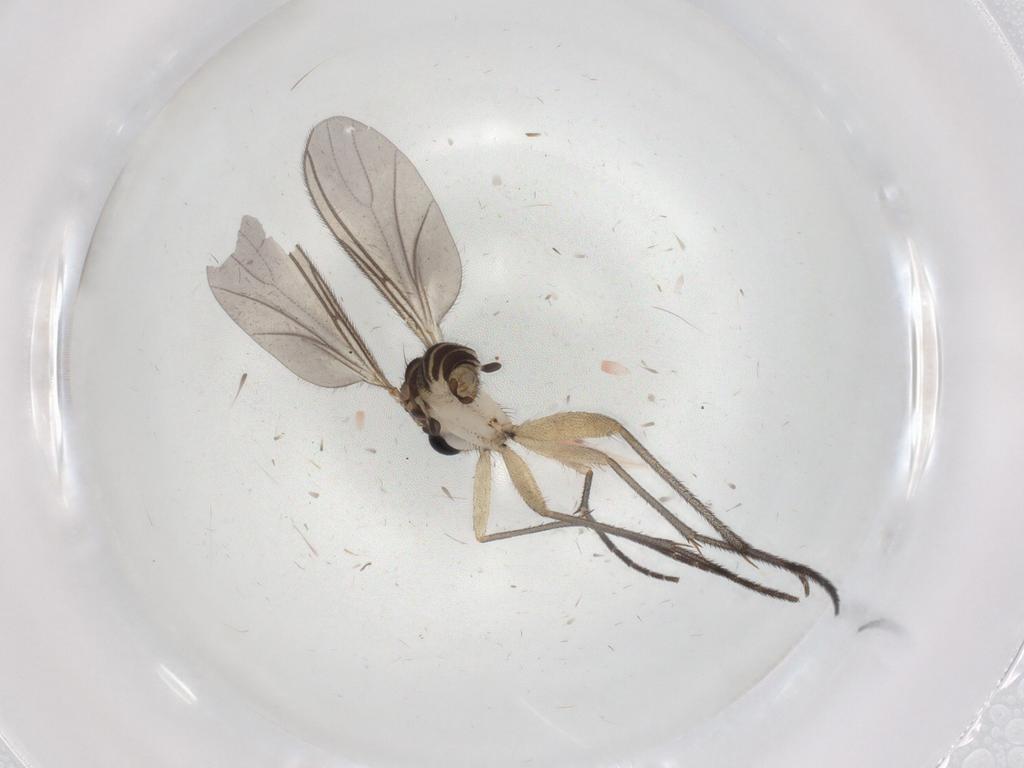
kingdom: Animalia
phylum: Arthropoda
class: Insecta
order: Diptera
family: Sciaridae
